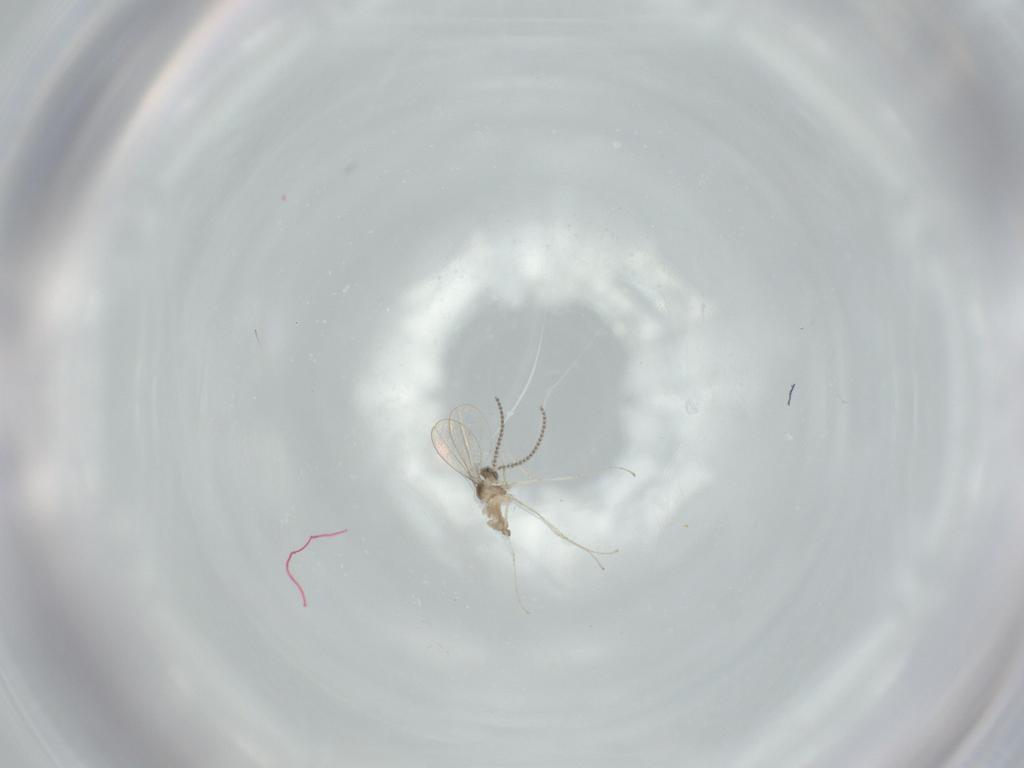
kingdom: Animalia
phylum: Arthropoda
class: Insecta
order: Diptera
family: Cecidomyiidae
